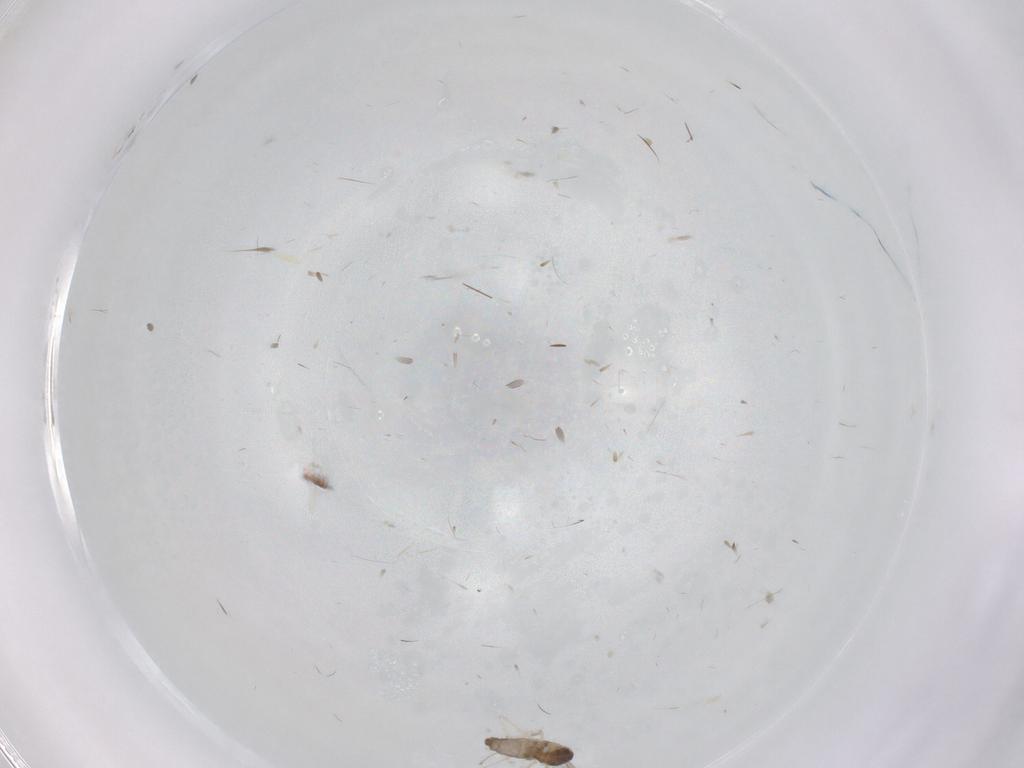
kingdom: Animalia
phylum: Arthropoda
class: Insecta
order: Diptera
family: Cecidomyiidae
